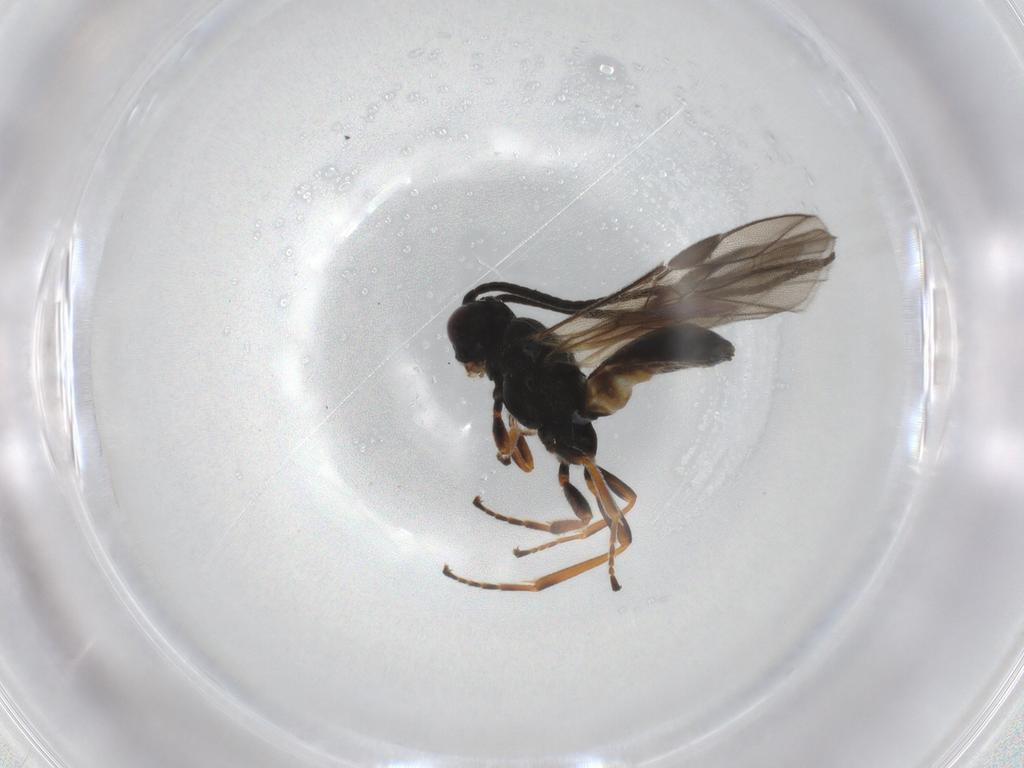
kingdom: Animalia
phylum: Arthropoda
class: Insecta
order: Hymenoptera
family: Braconidae
